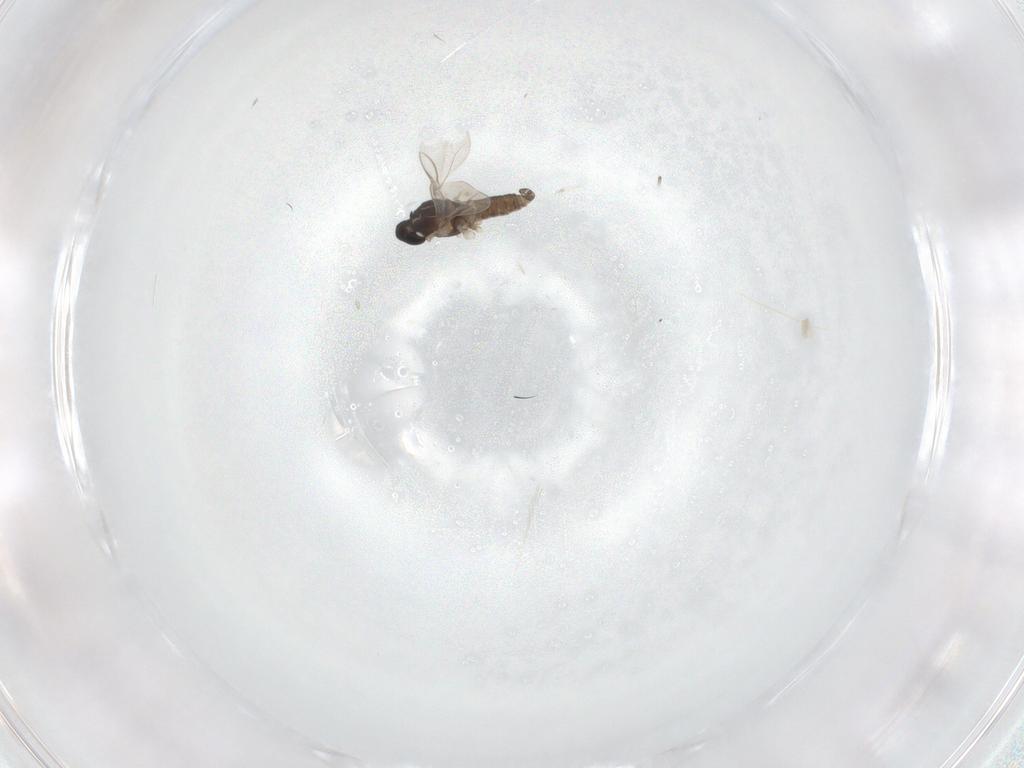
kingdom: Animalia
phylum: Arthropoda
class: Insecta
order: Diptera
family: Cecidomyiidae
